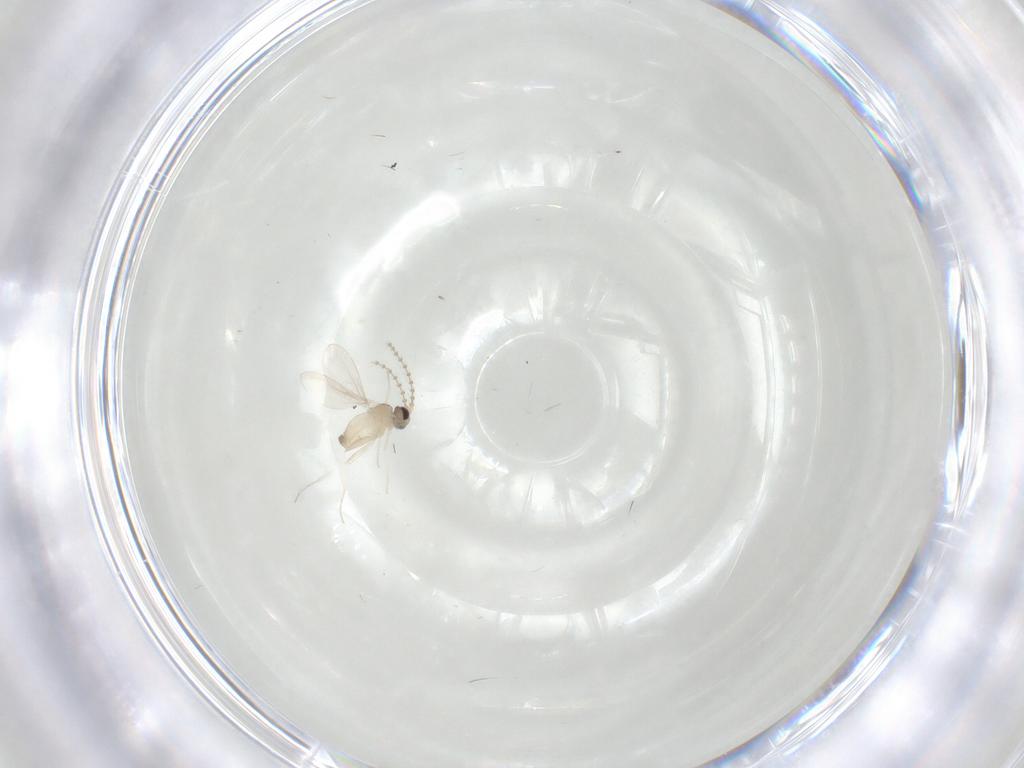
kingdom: Animalia
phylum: Arthropoda
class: Insecta
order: Diptera
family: Cecidomyiidae
